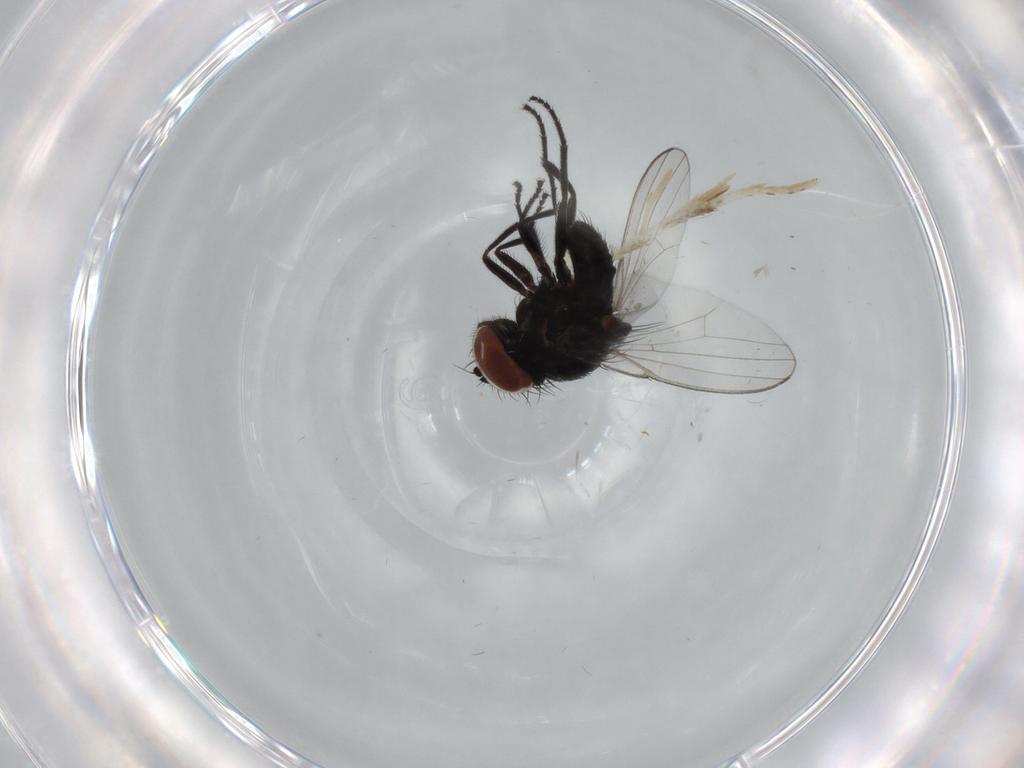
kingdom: Animalia
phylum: Arthropoda
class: Insecta
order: Diptera
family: Milichiidae
